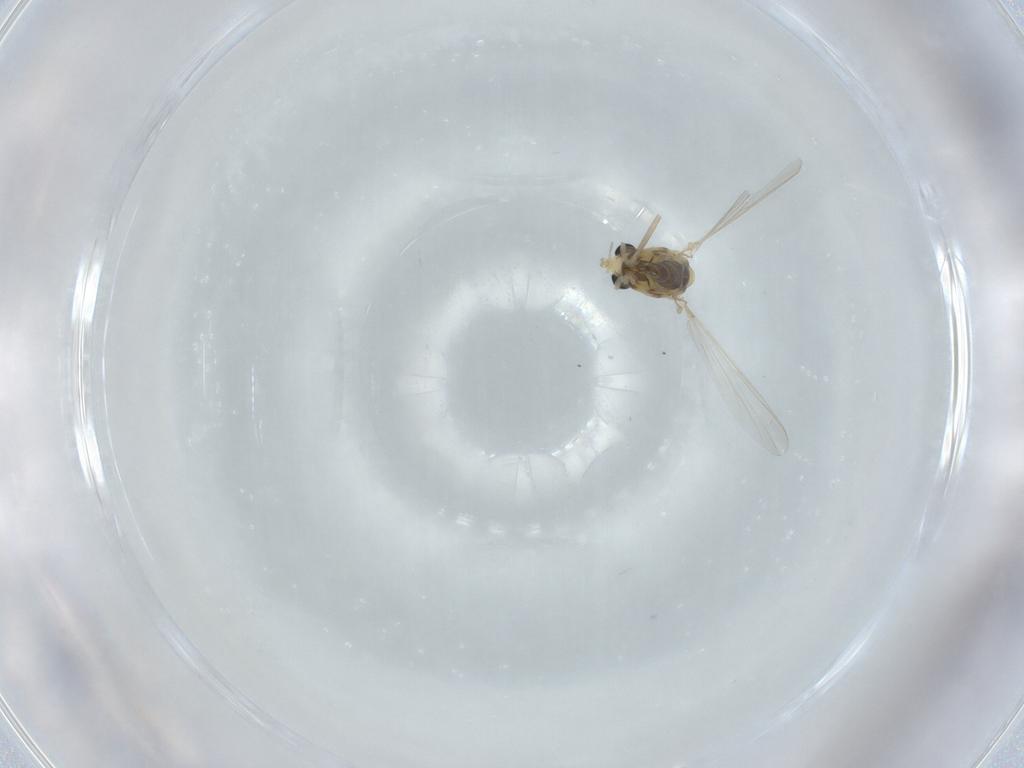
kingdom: Animalia
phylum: Arthropoda
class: Insecta
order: Diptera
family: Chironomidae
